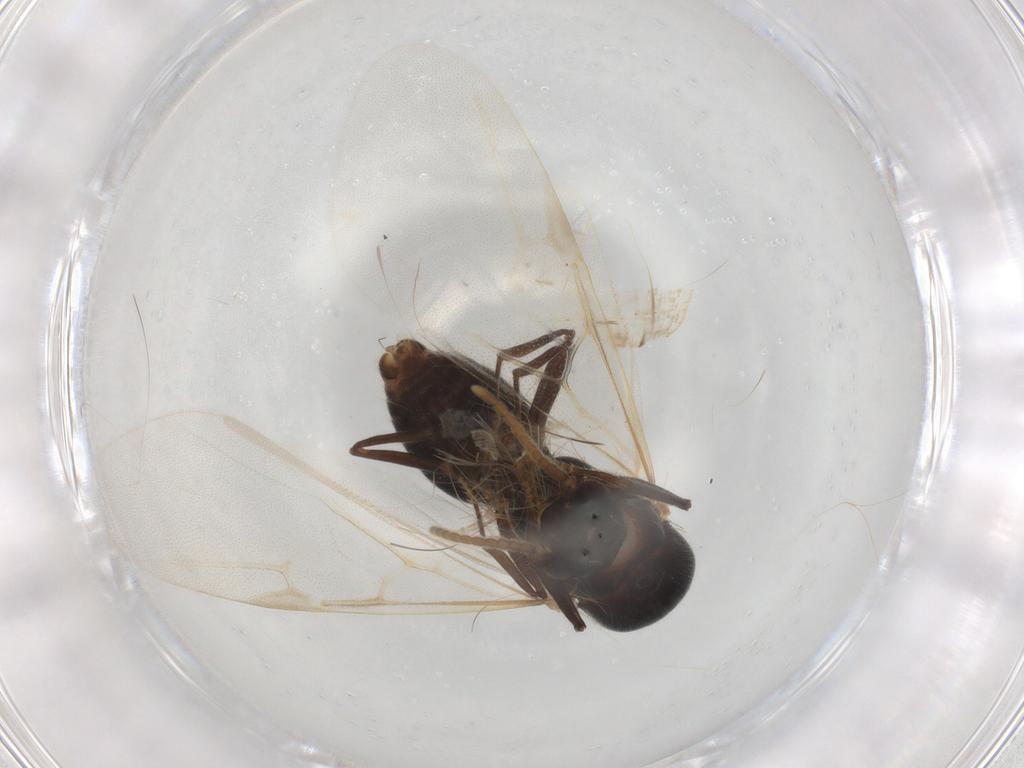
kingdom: Animalia
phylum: Arthropoda
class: Insecta
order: Hymenoptera
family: Formicidae
